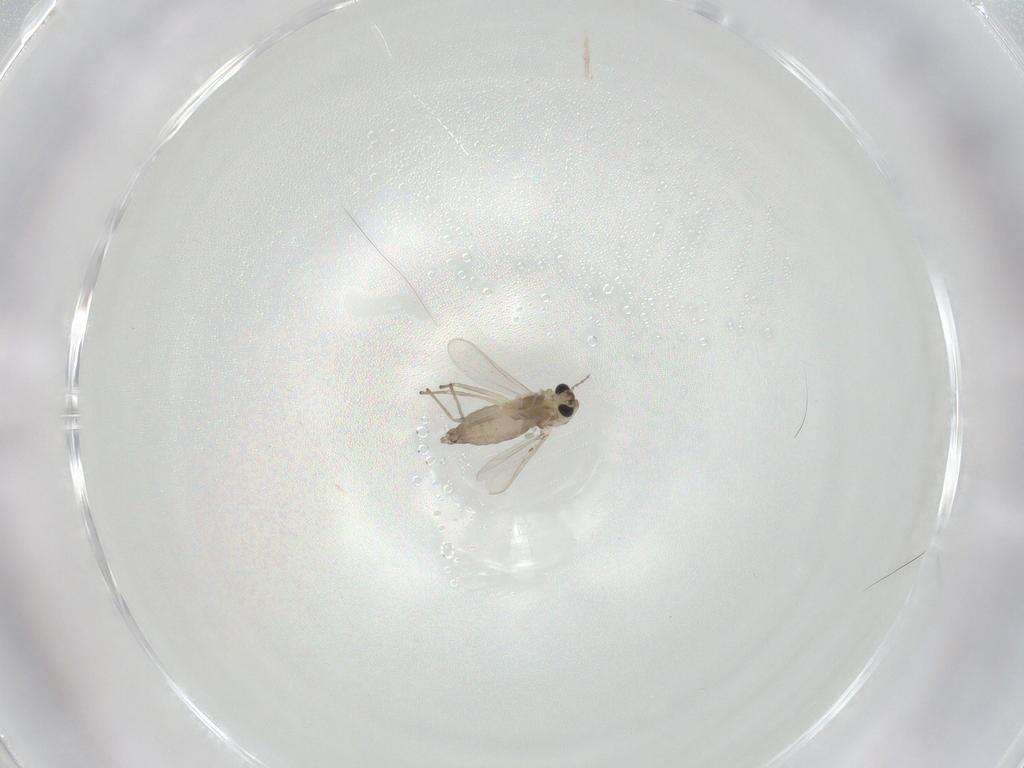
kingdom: Animalia
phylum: Arthropoda
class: Insecta
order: Diptera
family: Chironomidae
